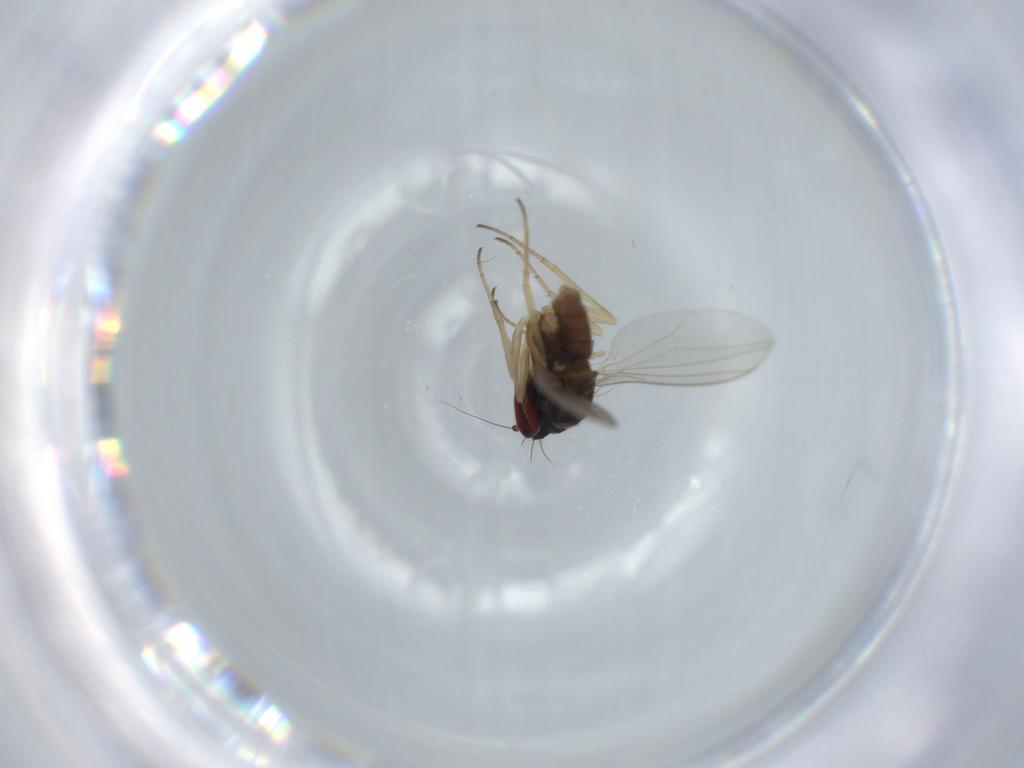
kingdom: Animalia
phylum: Arthropoda
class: Insecta
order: Diptera
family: Dolichopodidae
